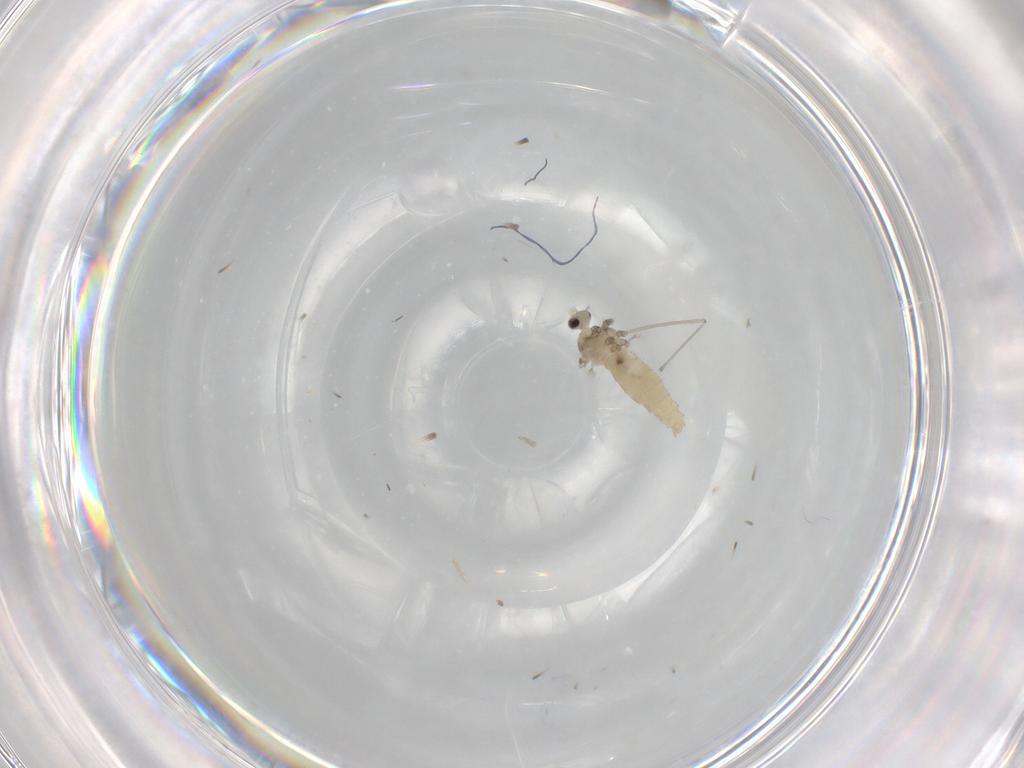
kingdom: Animalia
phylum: Arthropoda
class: Insecta
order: Diptera
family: Cecidomyiidae
